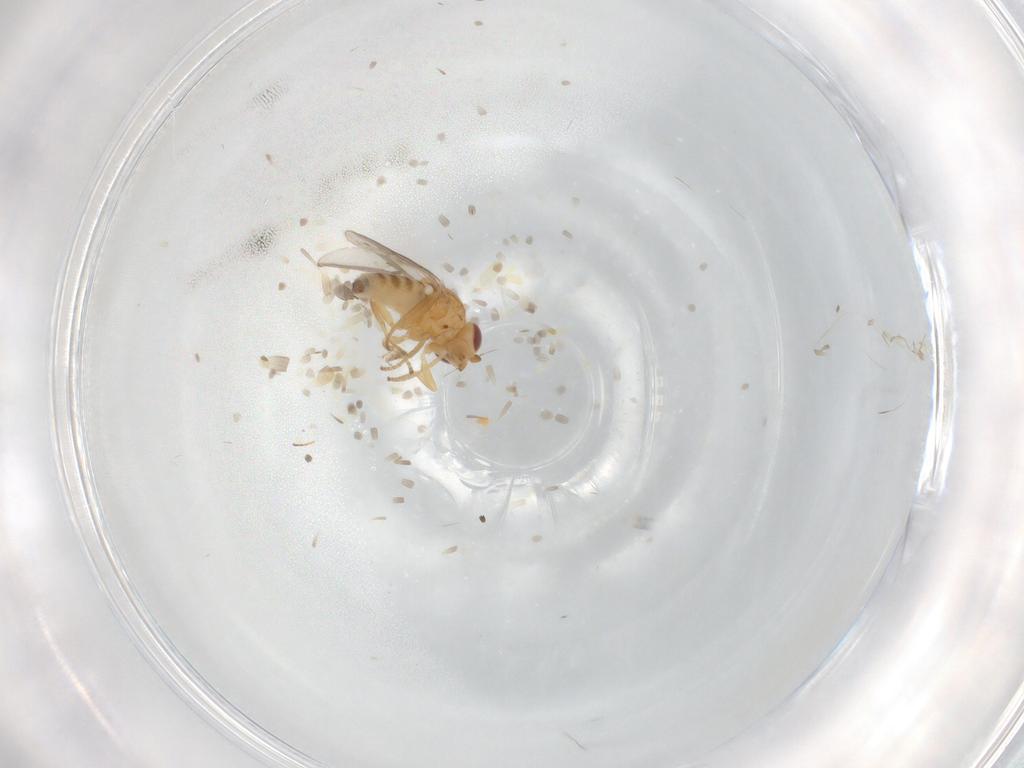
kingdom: Animalia
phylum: Arthropoda
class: Insecta
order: Diptera
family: Chloropidae
